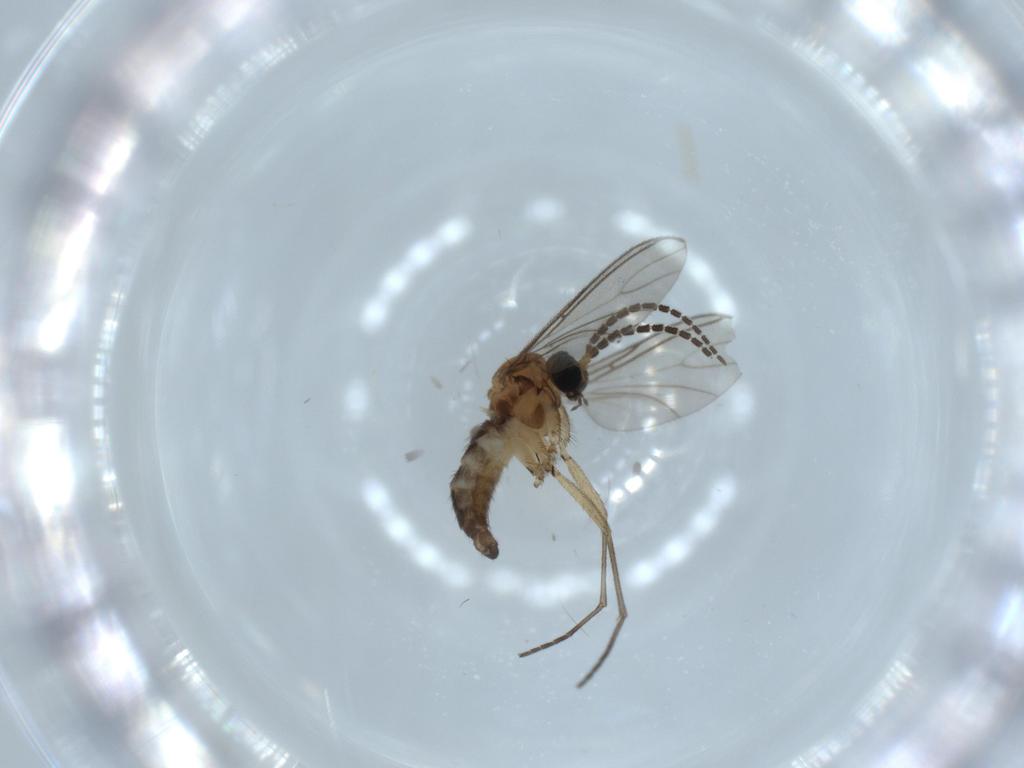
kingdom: Animalia
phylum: Arthropoda
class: Insecta
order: Diptera
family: Sciaridae
